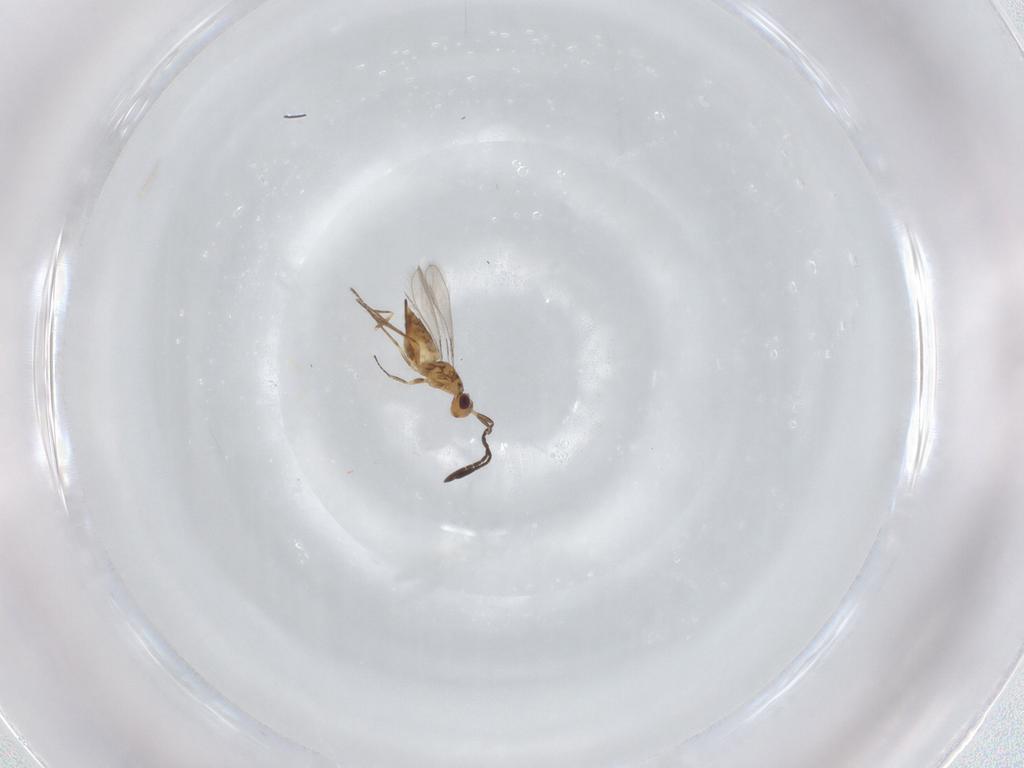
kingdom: Animalia
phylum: Arthropoda
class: Insecta
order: Hymenoptera
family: Mymaridae
